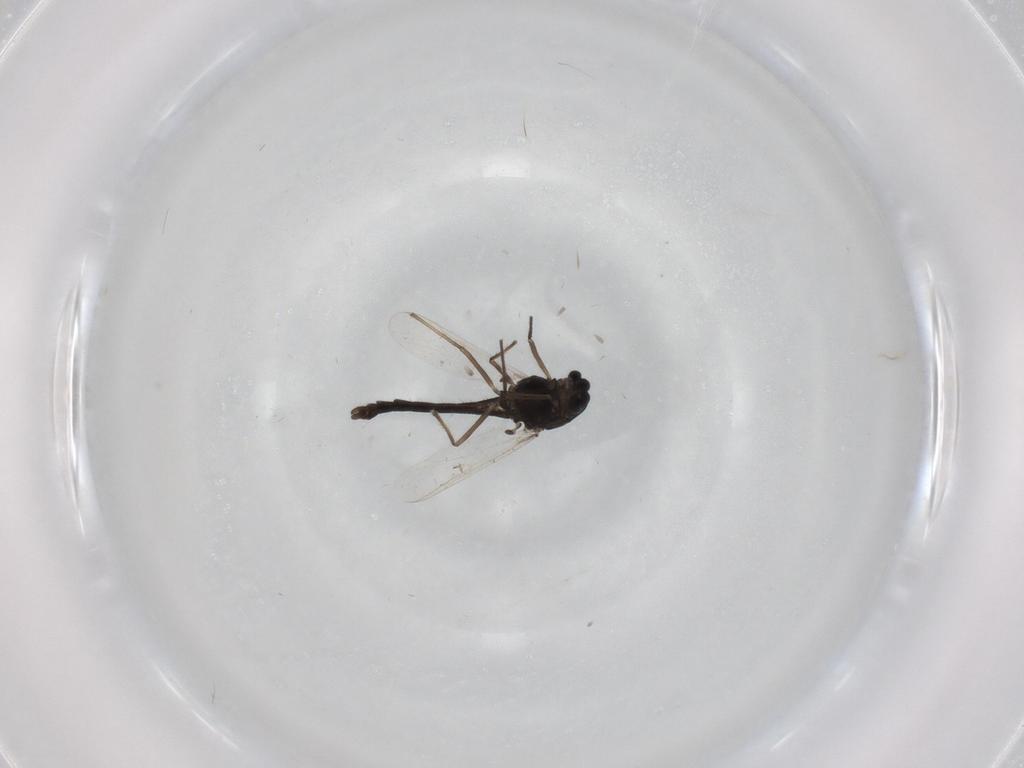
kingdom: Animalia
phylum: Arthropoda
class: Insecta
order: Diptera
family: Chironomidae
